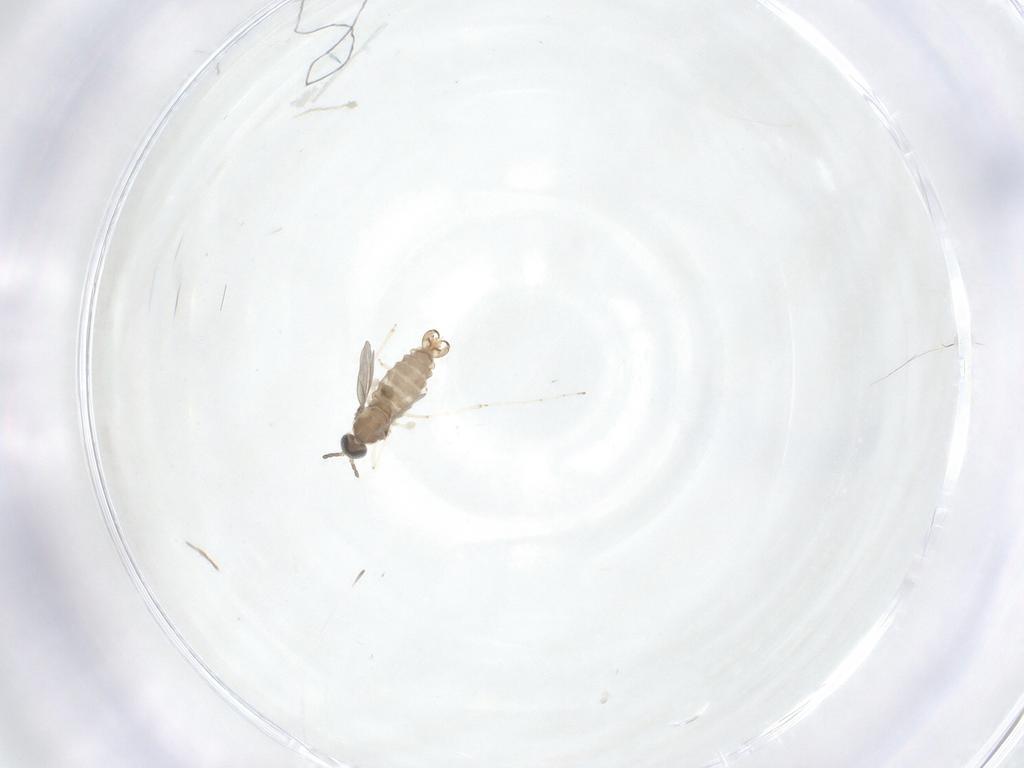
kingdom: Animalia
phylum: Arthropoda
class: Insecta
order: Diptera
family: Cecidomyiidae
